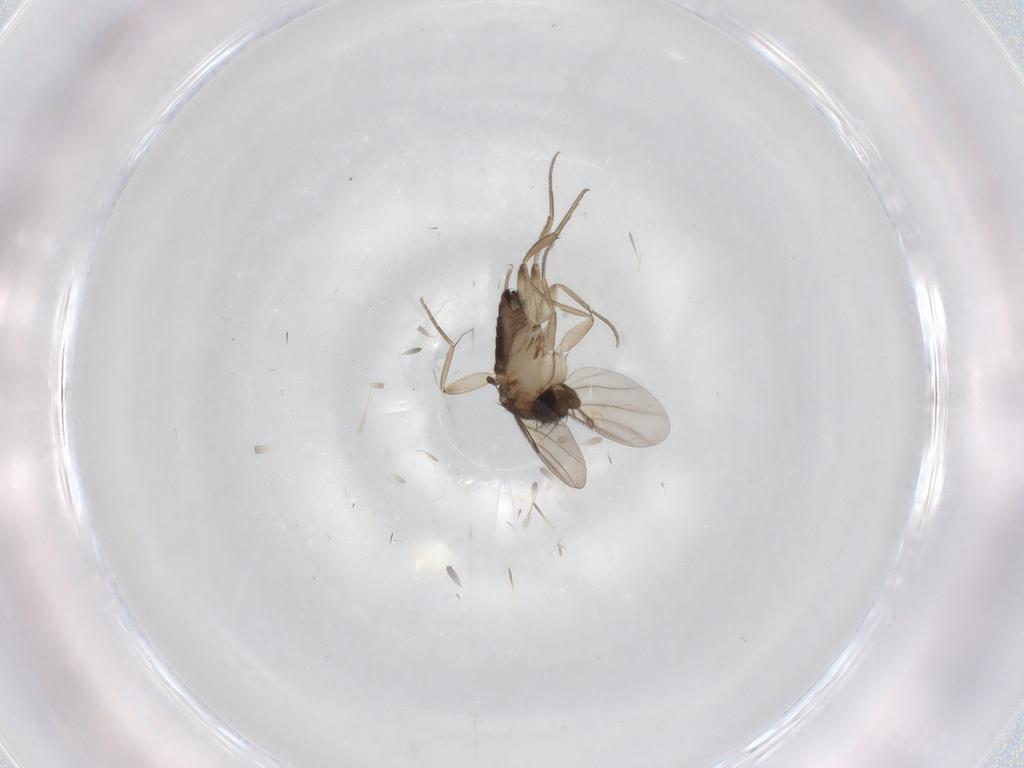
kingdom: Animalia
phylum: Arthropoda
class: Insecta
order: Diptera
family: Phoridae
